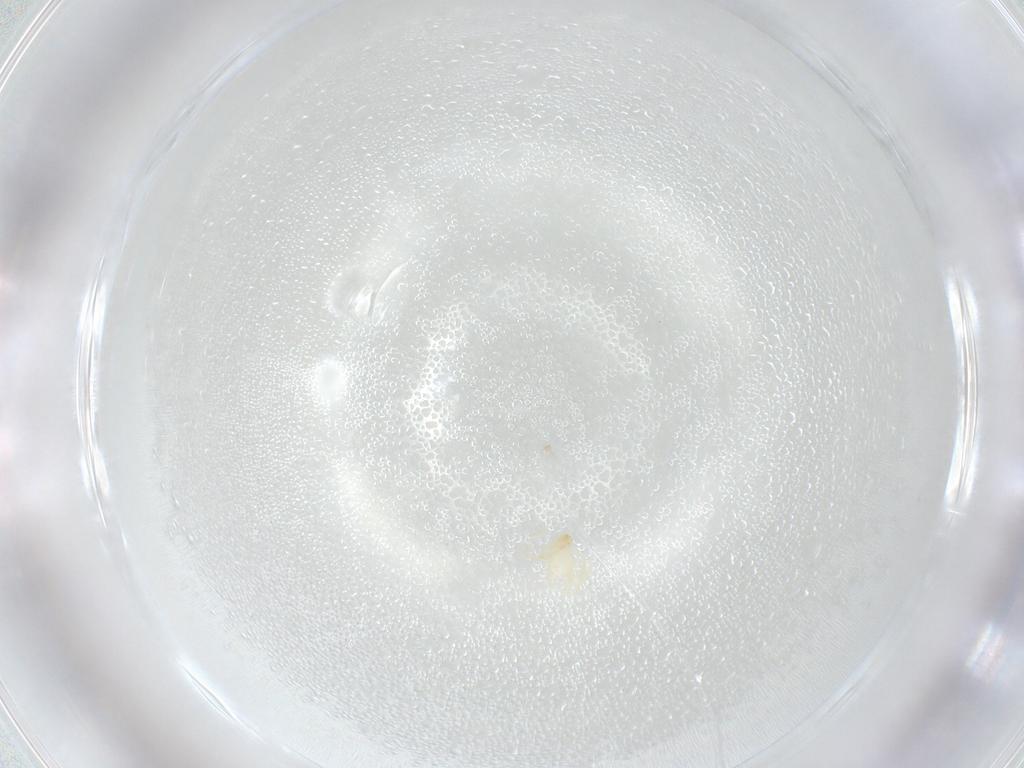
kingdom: Animalia
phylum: Arthropoda
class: Arachnida
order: Trombidiformes
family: Erythraeidae
